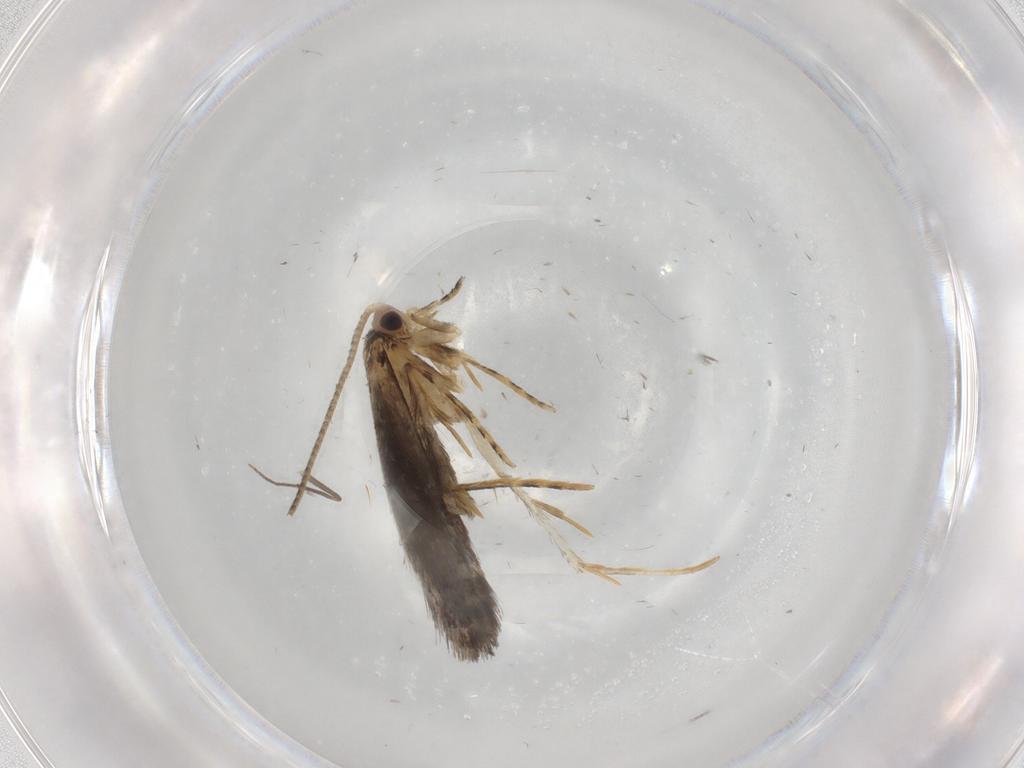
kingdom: Animalia
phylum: Arthropoda
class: Insecta
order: Lepidoptera
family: Tineidae
